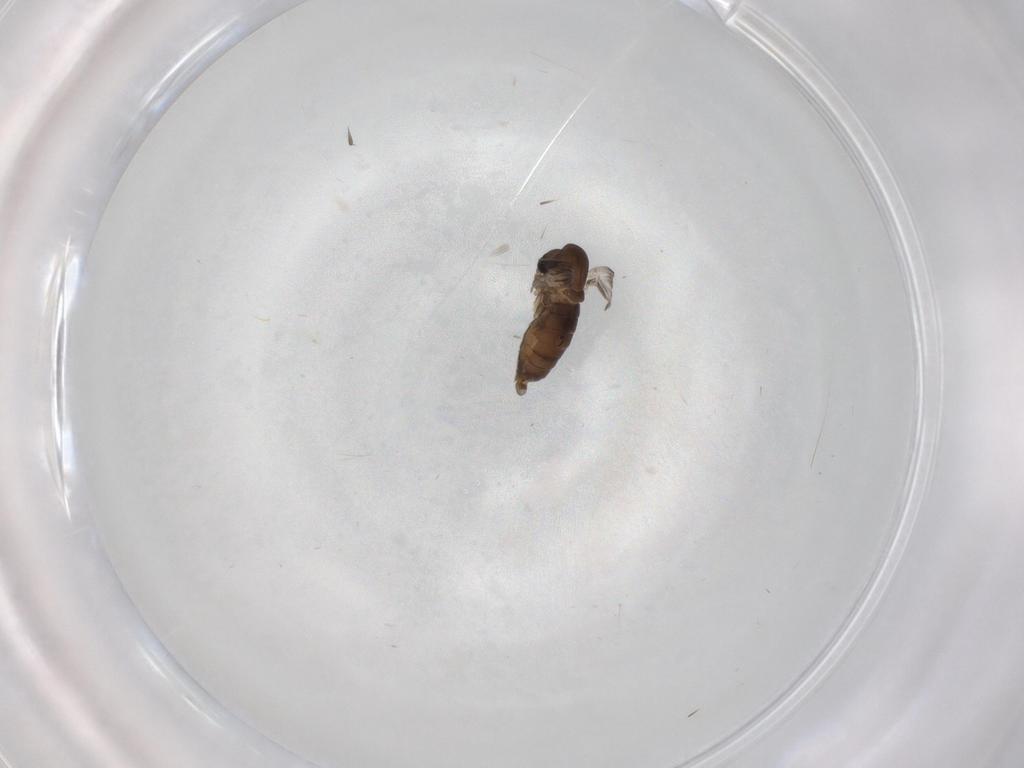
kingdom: Animalia
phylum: Arthropoda
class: Insecta
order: Diptera
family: Psychodidae
